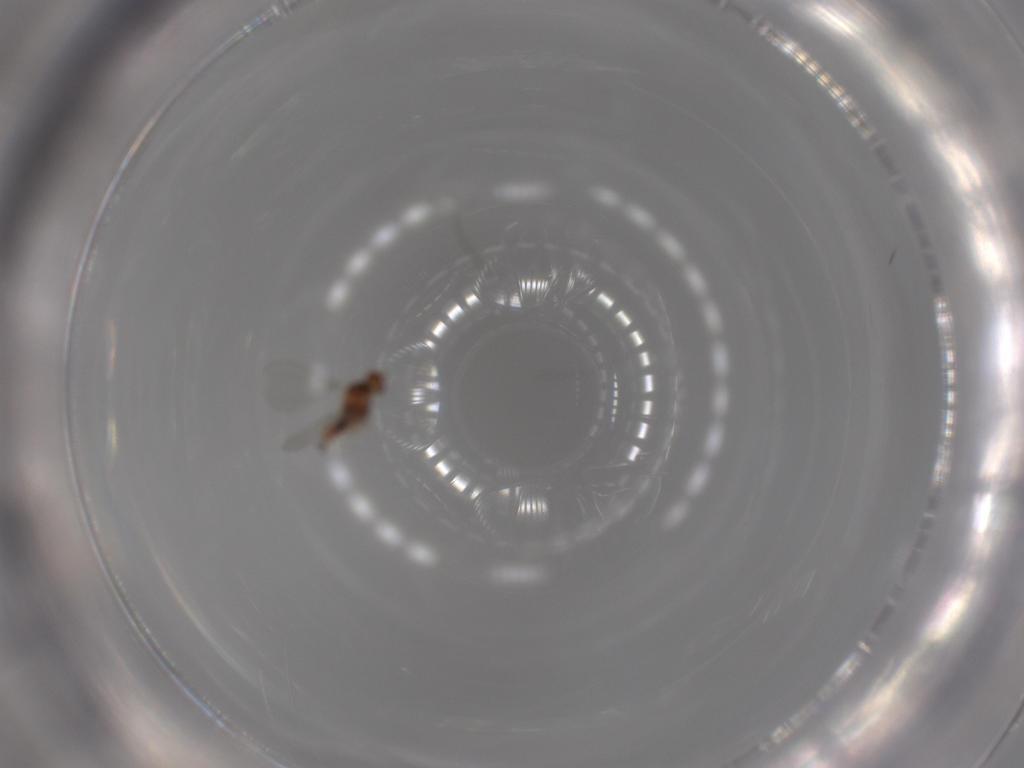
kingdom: Animalia
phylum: Arthropoda
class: Insecta
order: Diptera
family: Cecidomyiidae
